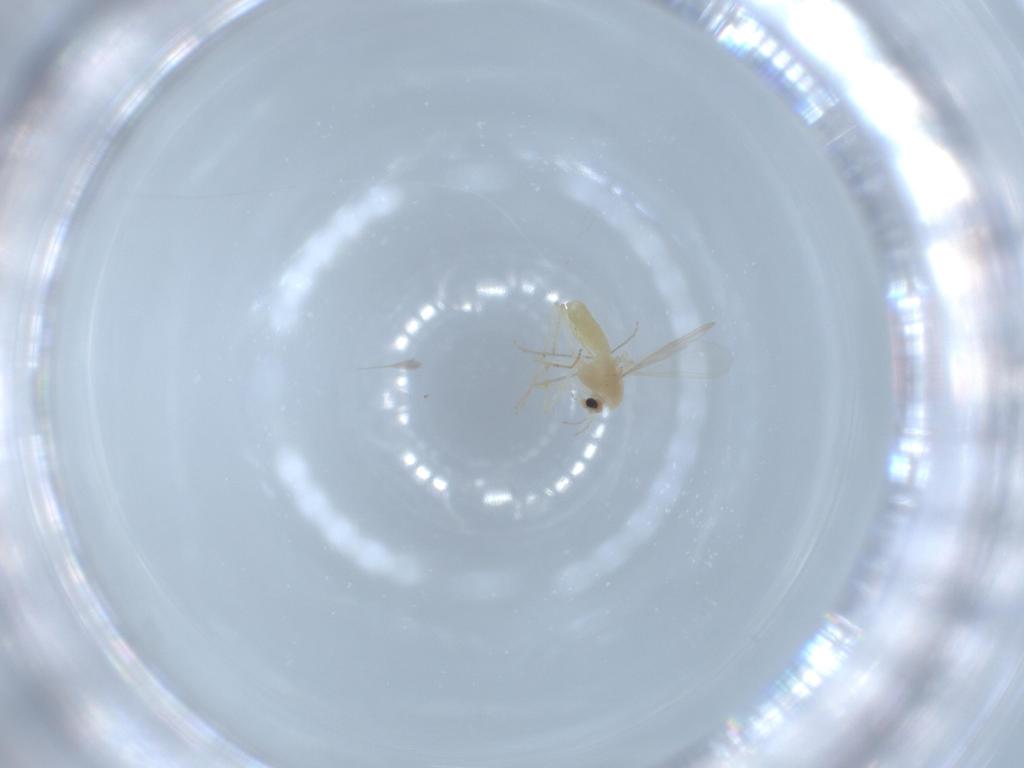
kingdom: Animalia
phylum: Arthropoda
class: Insecta
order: Diptera
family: Chironomidae
